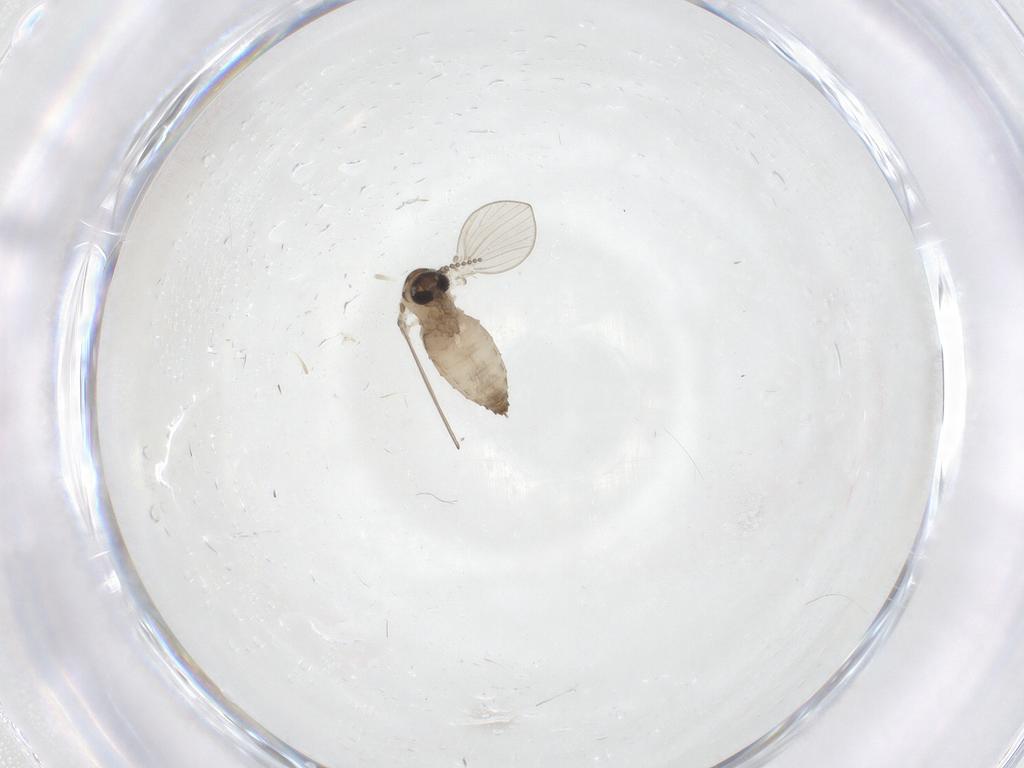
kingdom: Animalia
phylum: Arthropoda
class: Insecta
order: Diptera
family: Psychodidae
